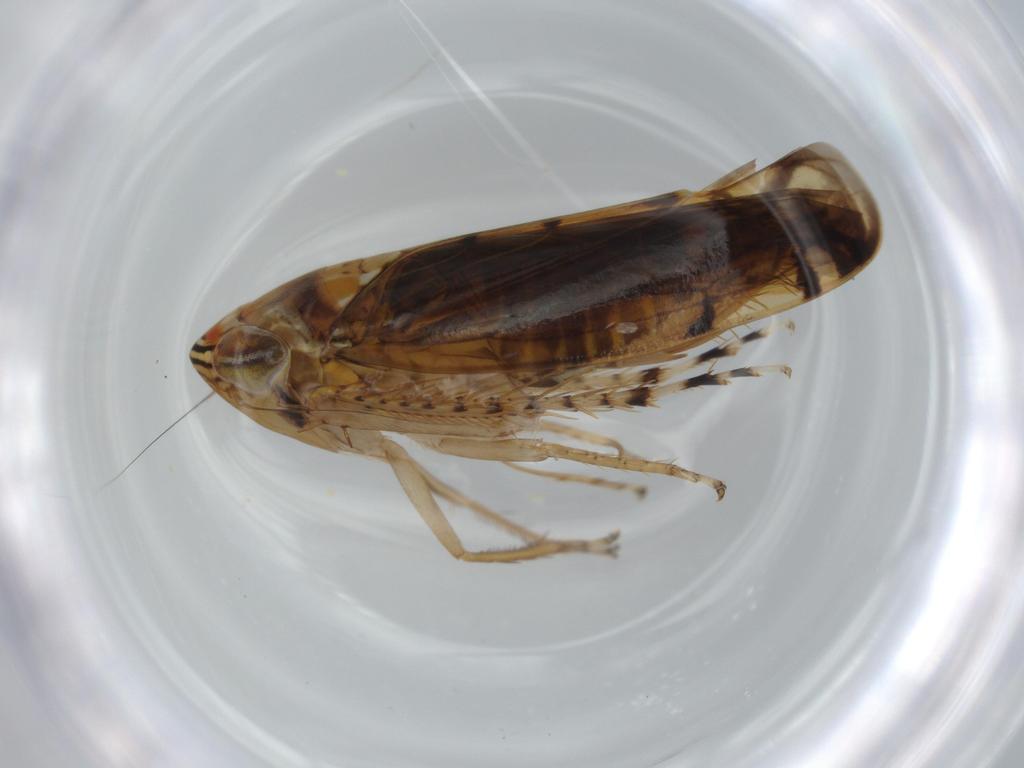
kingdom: Animalia
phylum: Arthropoda
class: Insecta
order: Hemiptera
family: Cicadellidae
